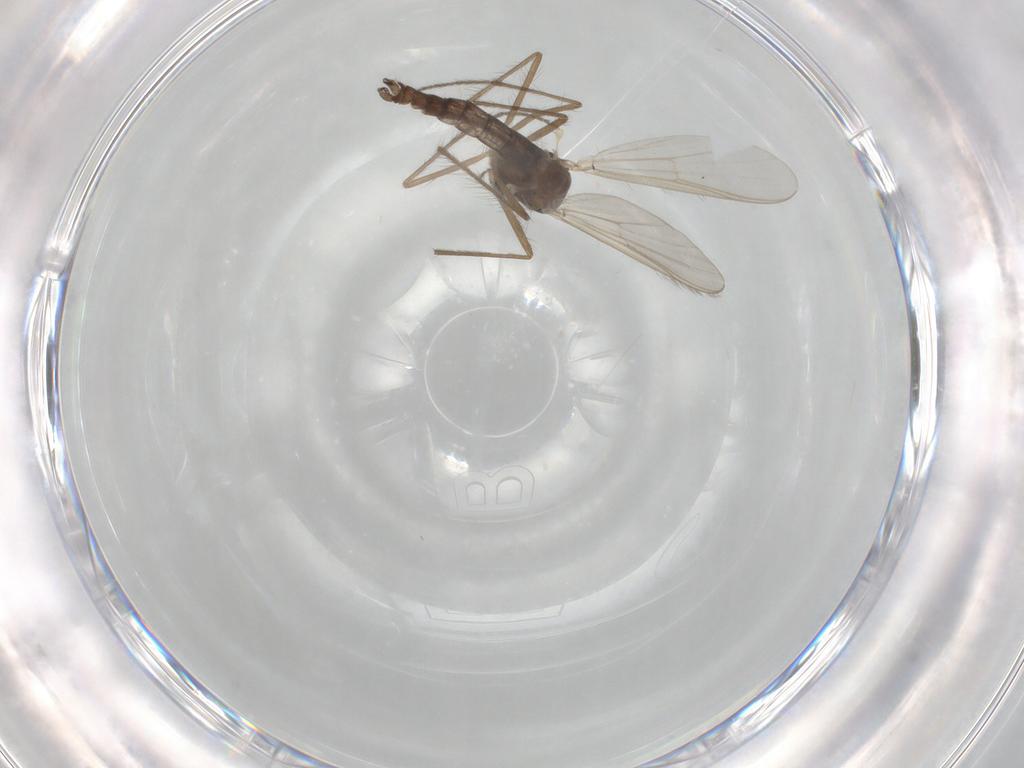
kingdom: Animalia
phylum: Arthropoda
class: Insecta
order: Diptera
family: Chironomidae
